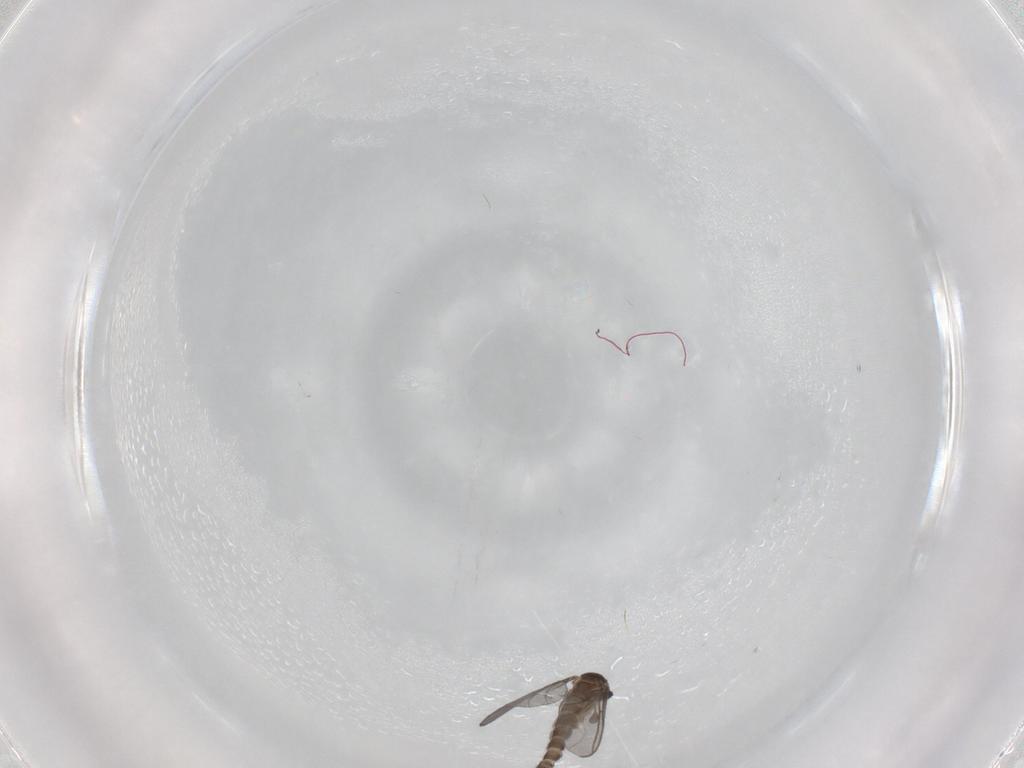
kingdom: Animalia
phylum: Arthropoda
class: Insecta
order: Diptera
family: Sciaridae
